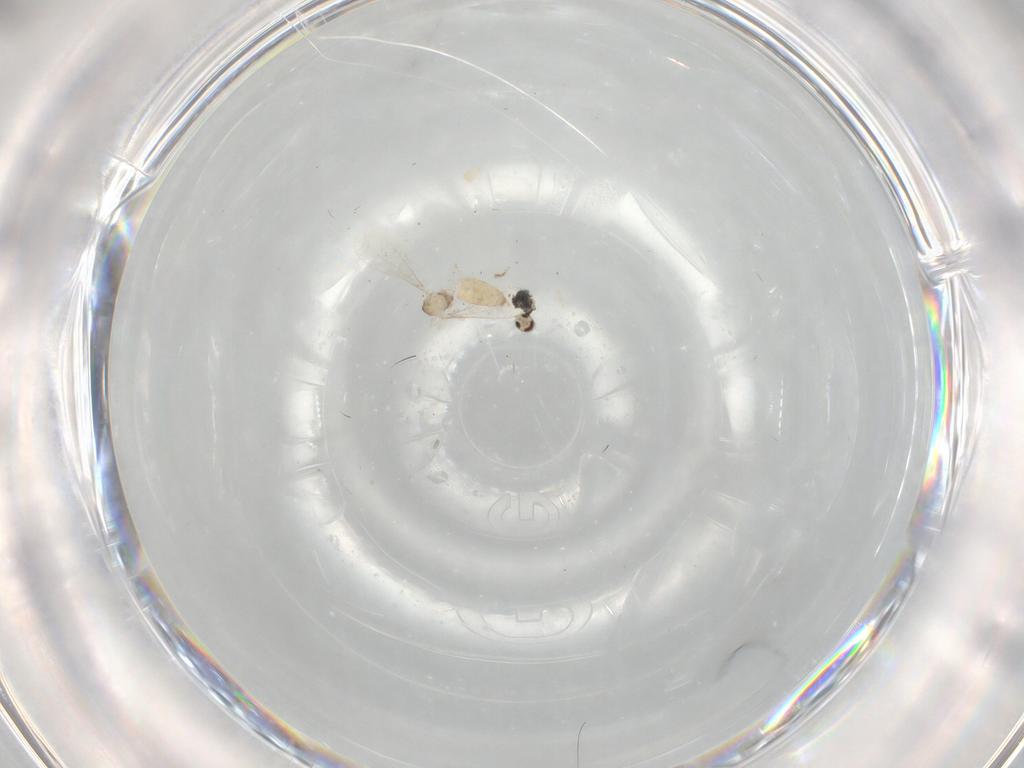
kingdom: Animalia
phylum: Arthropoda
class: Insecta
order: Diptera
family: Cecidomyiidae
